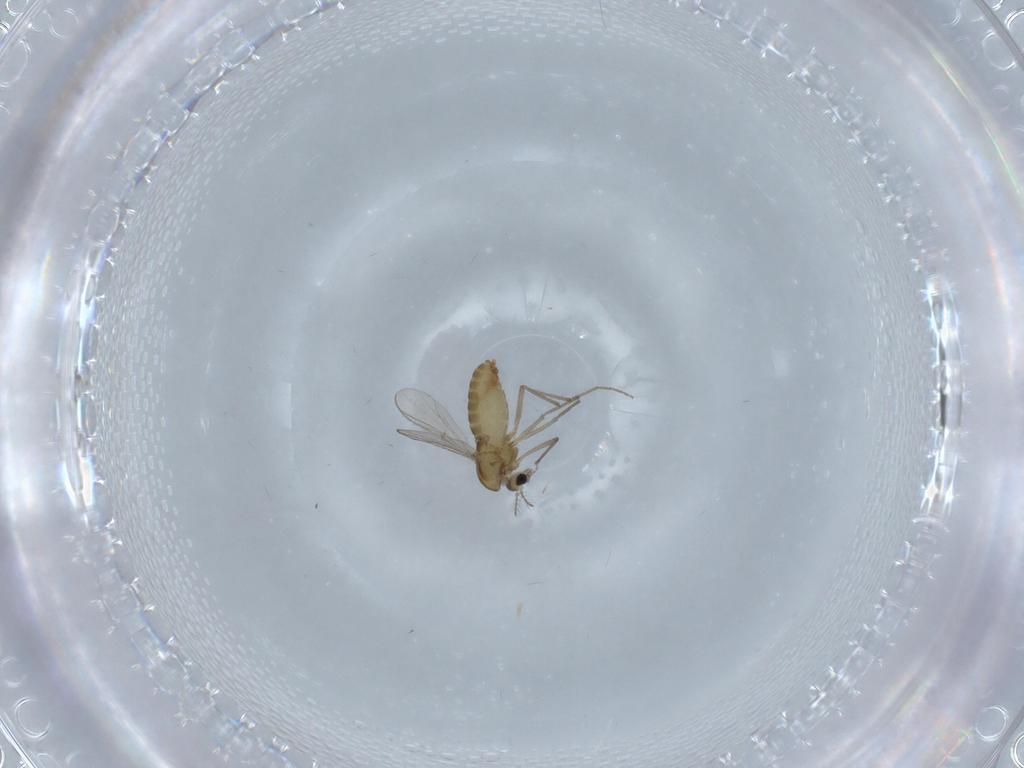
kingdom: Animalia
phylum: Arthropoda
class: Insecta
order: Diptera
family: Chironomidae
